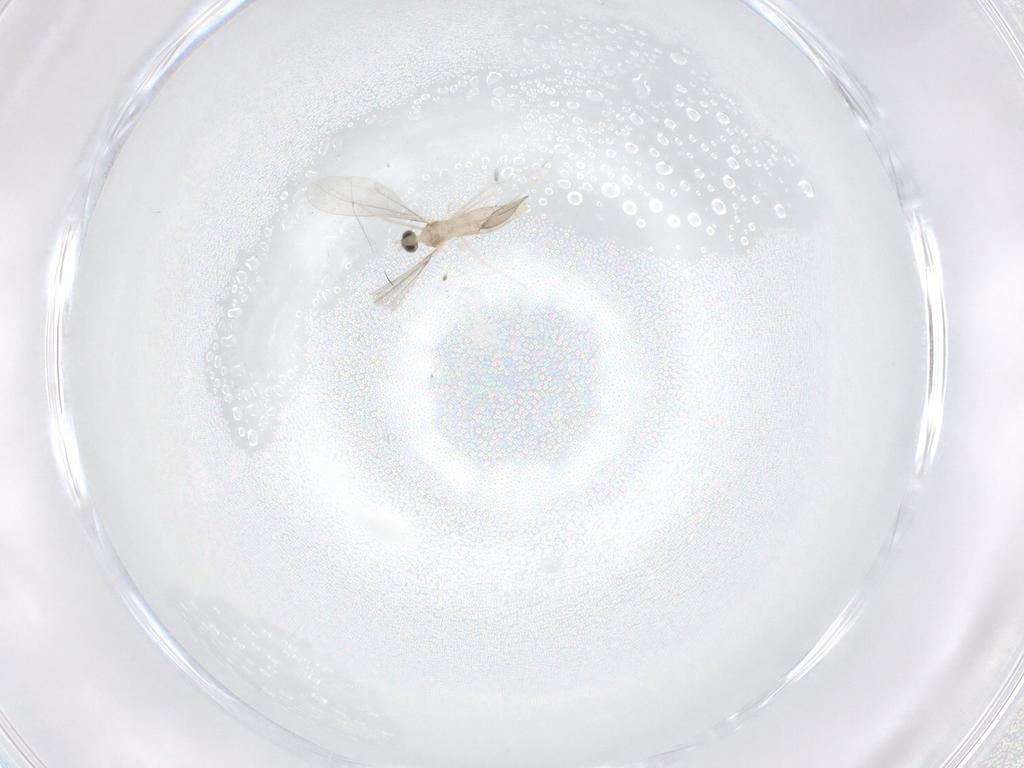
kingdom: Animalia
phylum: Arthropoda
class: Insecta
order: Diptera
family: Cecidomyiidae
